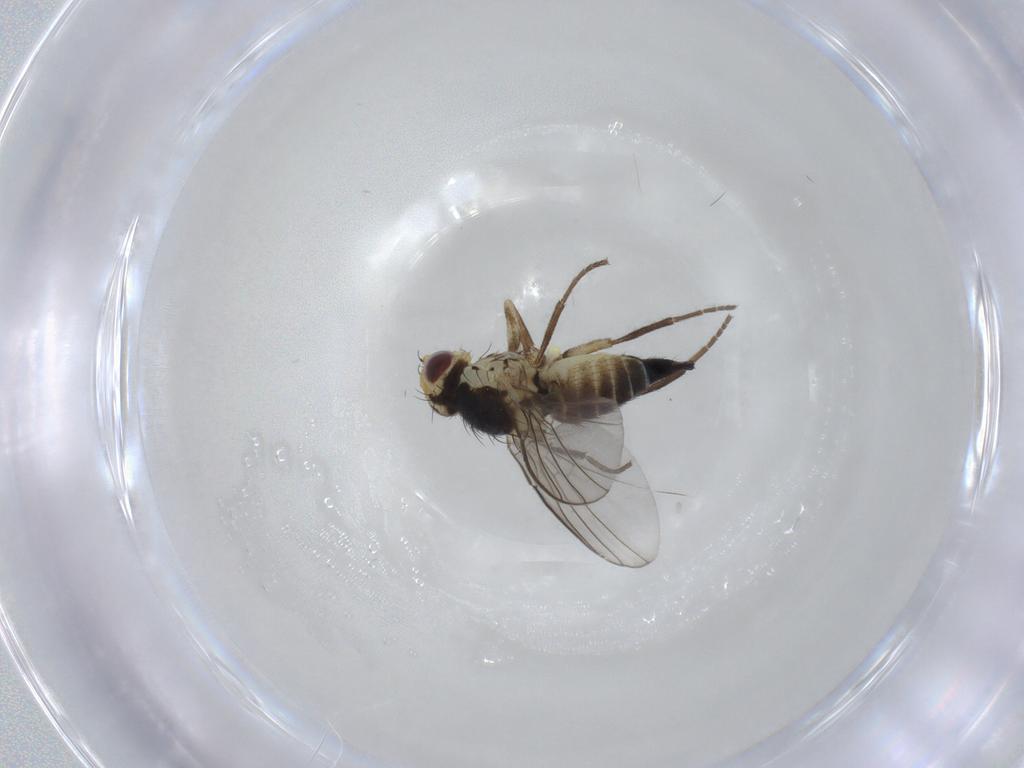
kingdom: Animalia
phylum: Arthropoda
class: Insecta
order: Diptera
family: Agromyzidae
